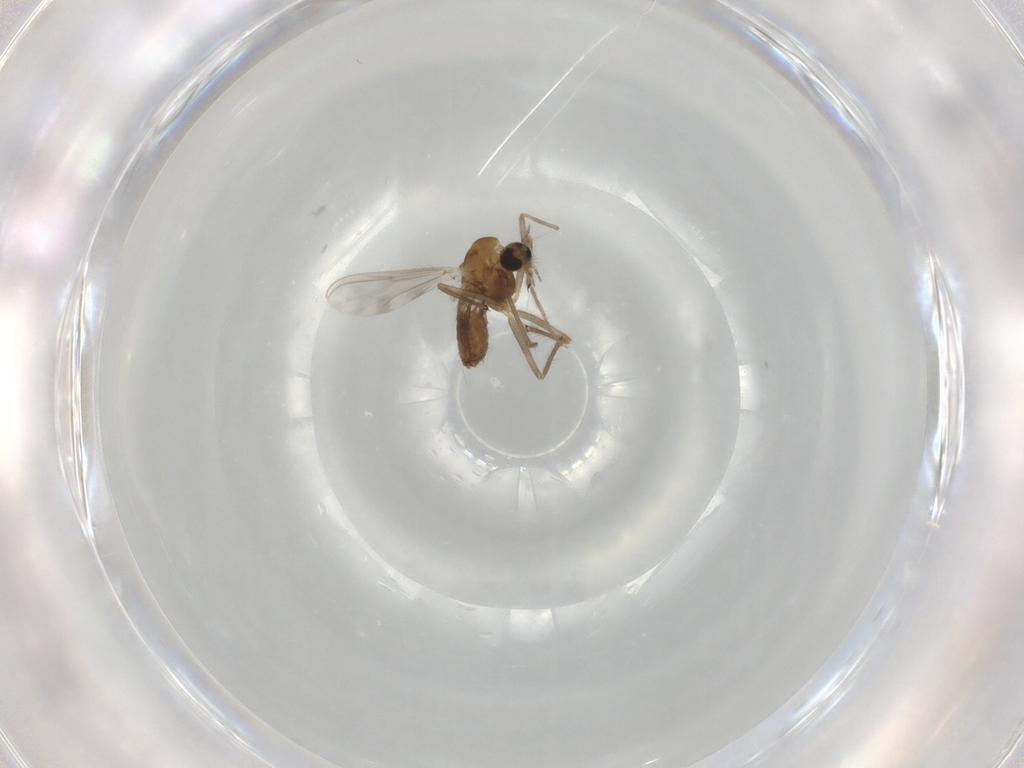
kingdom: Animalia
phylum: Arthropoda
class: Insecta
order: Diptera
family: Chironomidae
